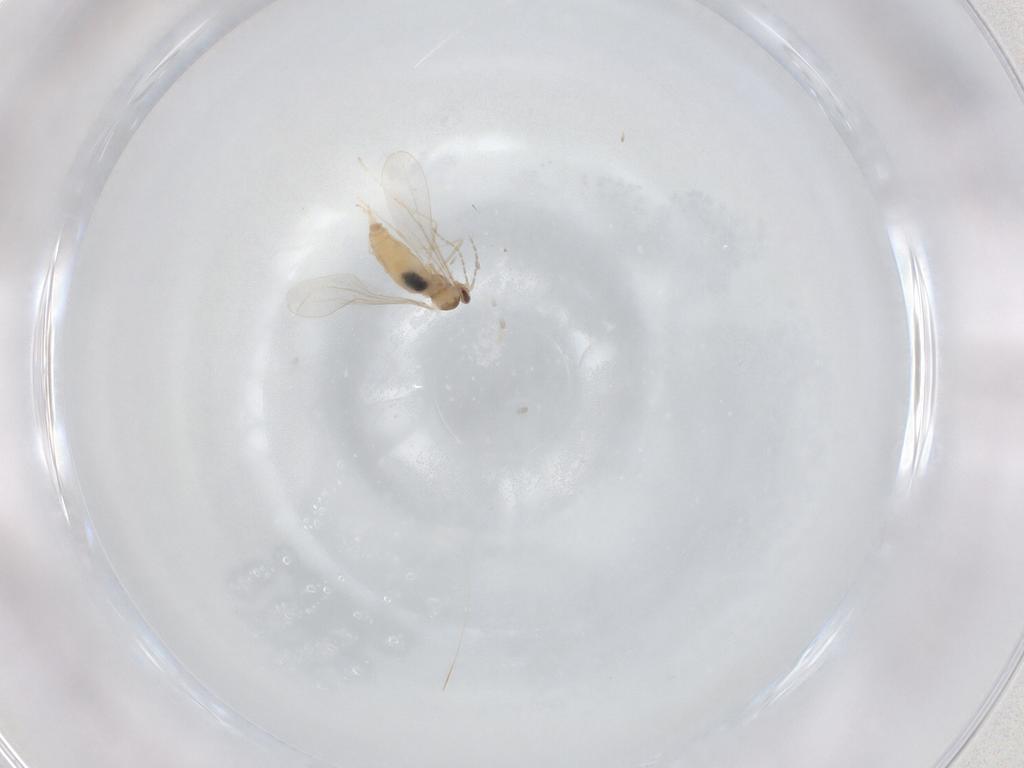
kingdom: Animalia
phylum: Arthropoda
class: Insecta
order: Diptera
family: Cecidomyiidae
